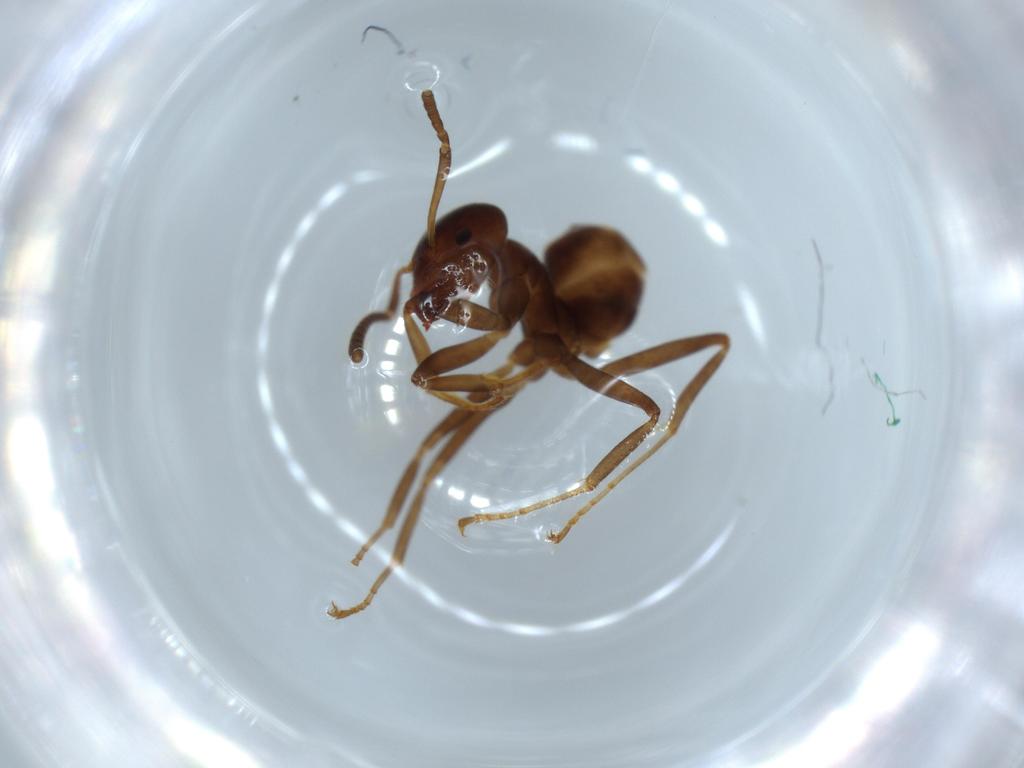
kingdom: Animalia
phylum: Arthropoda
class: Insecta
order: Hymenoptera
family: Formicidae
